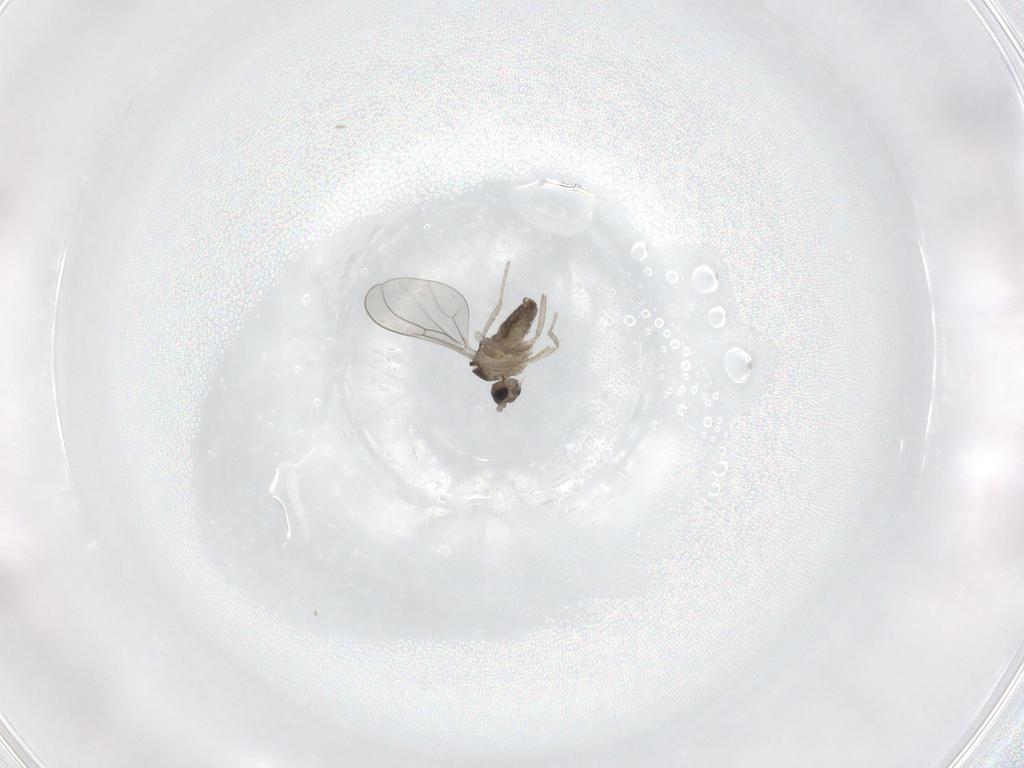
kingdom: Animalia
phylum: Arthropoda
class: Insecta
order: Diptera
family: Cecidomyiidae
